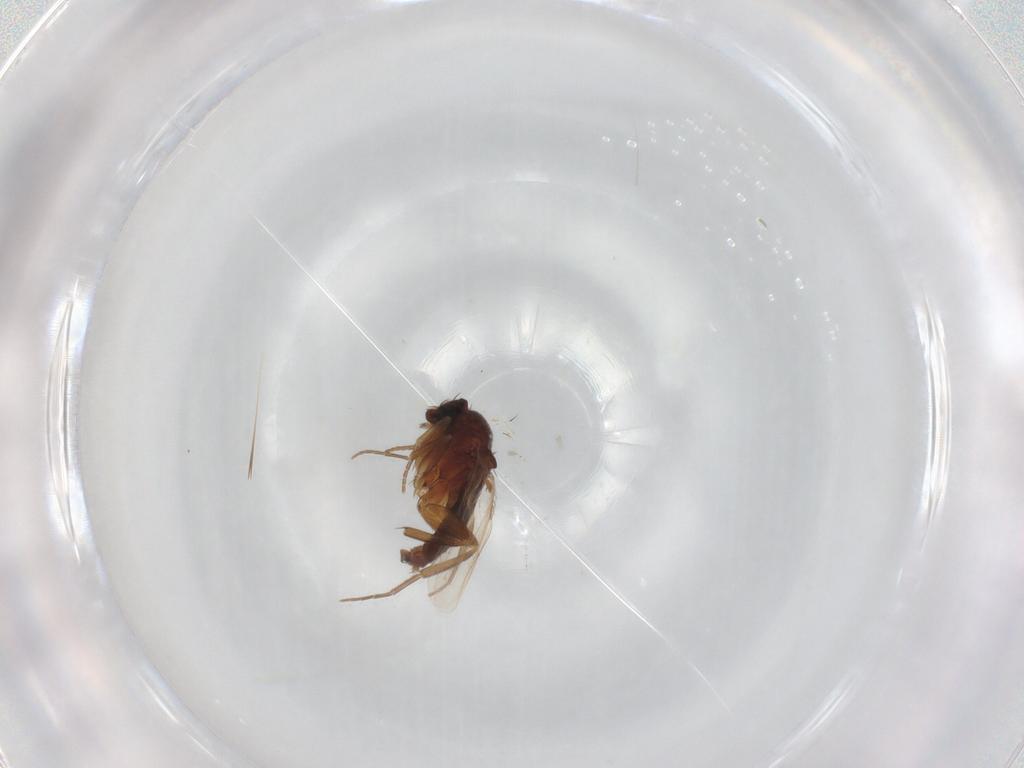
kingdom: Animalia
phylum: Arthropoda
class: Insecta
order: Diptera
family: Phoridae
